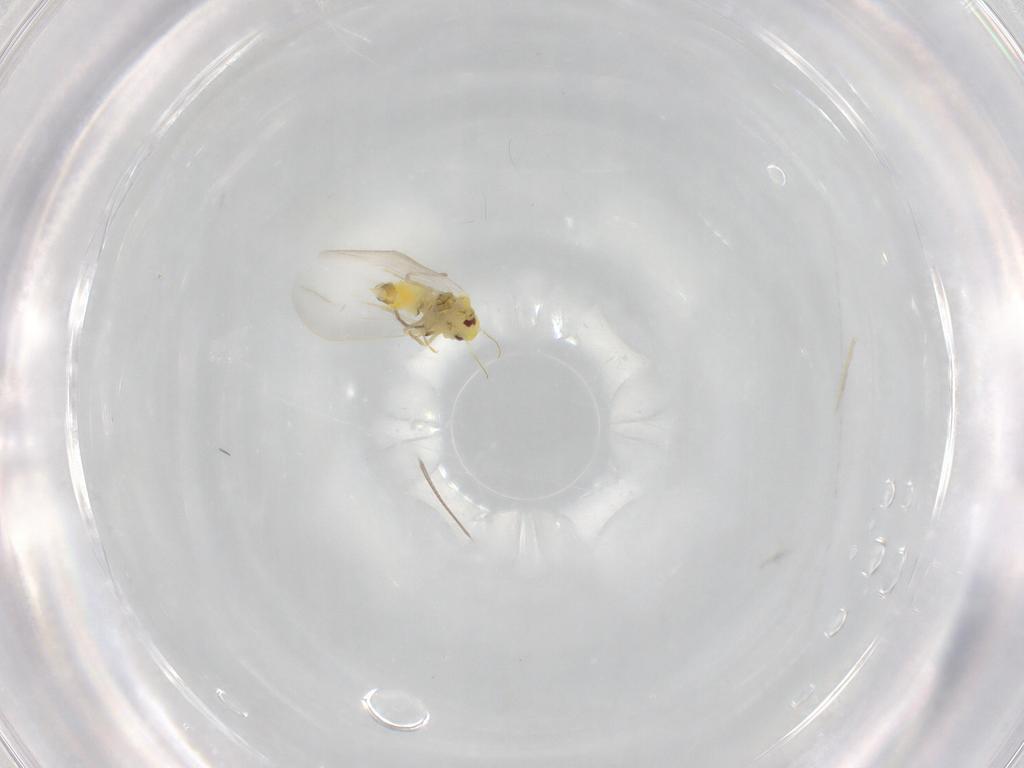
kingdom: Animalia
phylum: Arthropoda
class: Insecta
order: Hemiptera
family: Aleyrodidae
